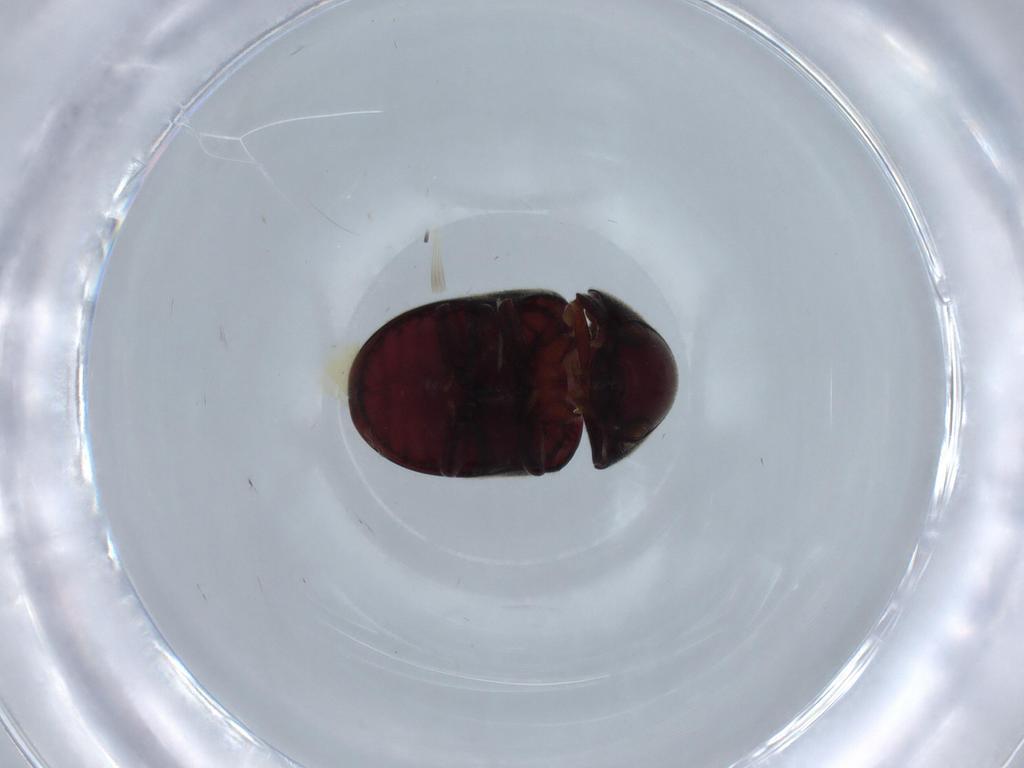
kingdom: Animalia
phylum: Arthropoda
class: Insecta
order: Coleoptera
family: Ptinidae
